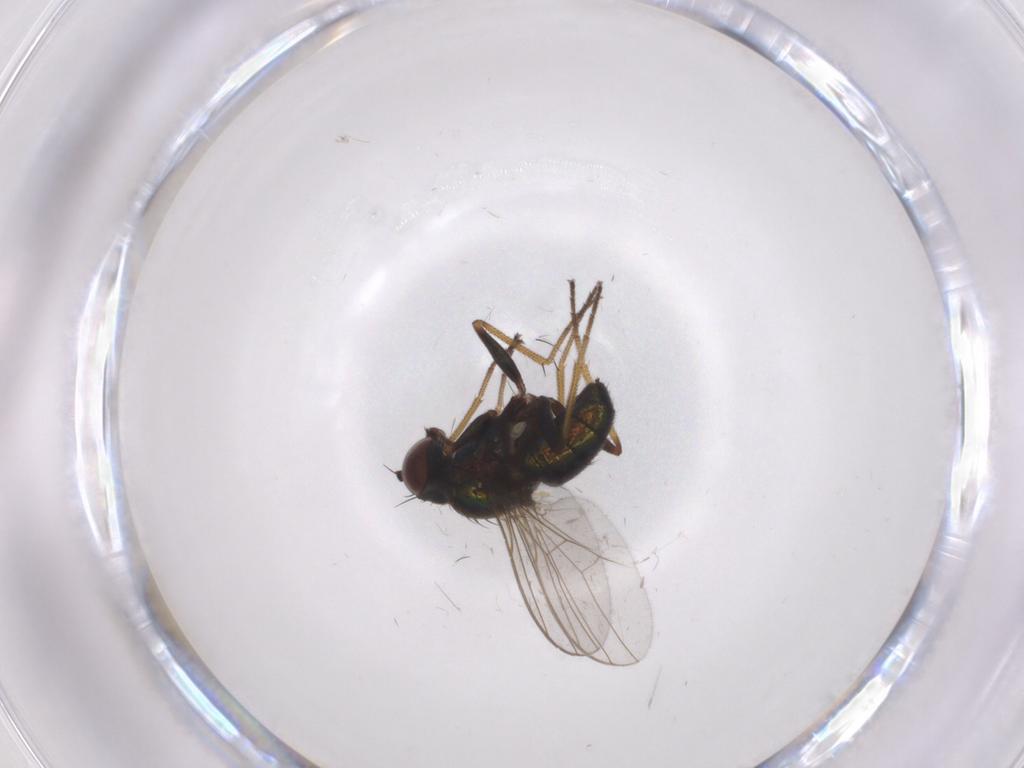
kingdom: Animalia
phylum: Arthropoda
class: Insecta
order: Diptera
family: Dolichopodidae
